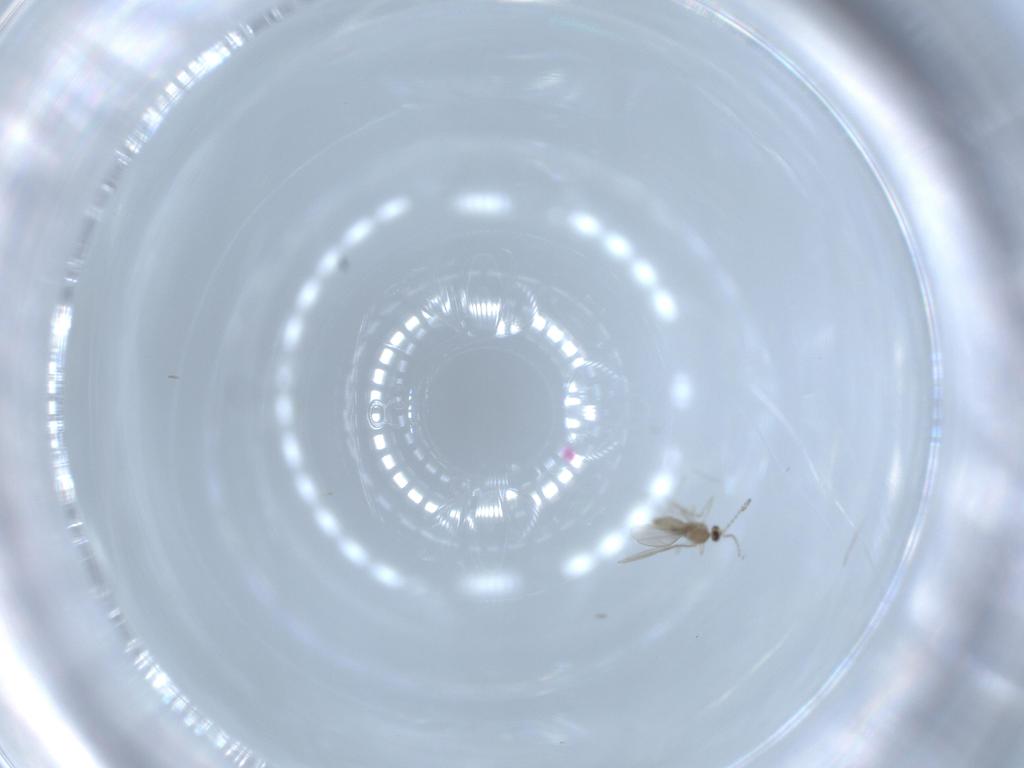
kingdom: Animalia
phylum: Arthropoda
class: Insecta
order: Diptera
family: Cecidomyiidae
